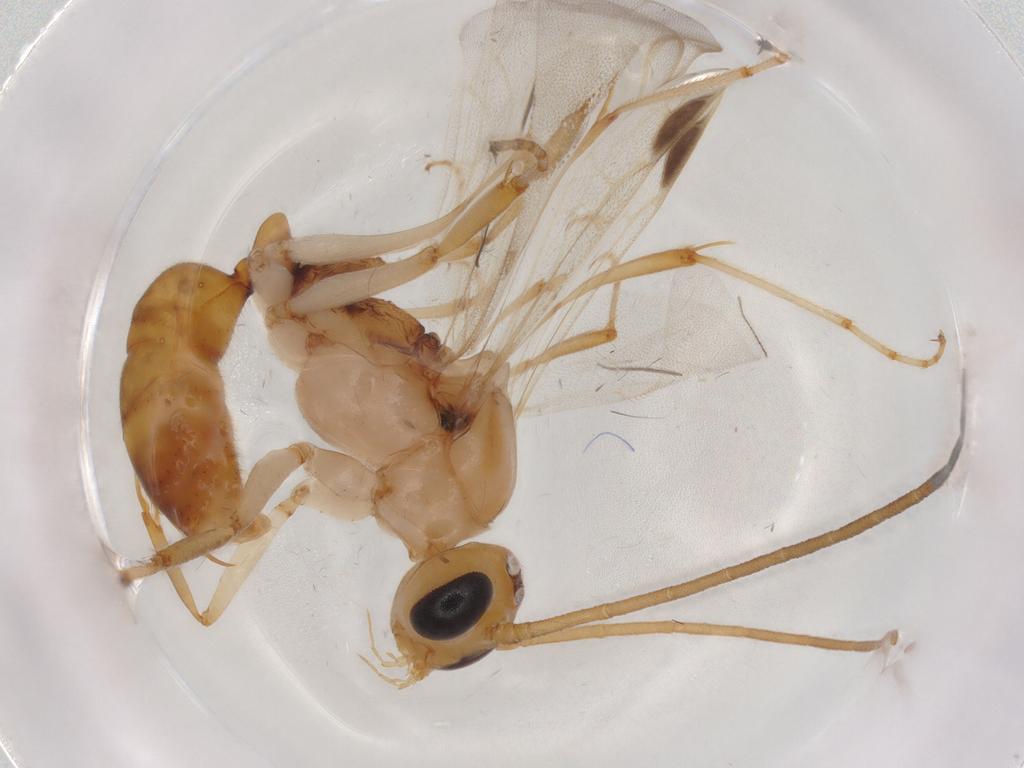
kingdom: Animalia
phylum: Arthropoda
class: Insecta
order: Hymenoptera
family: Formicidae
